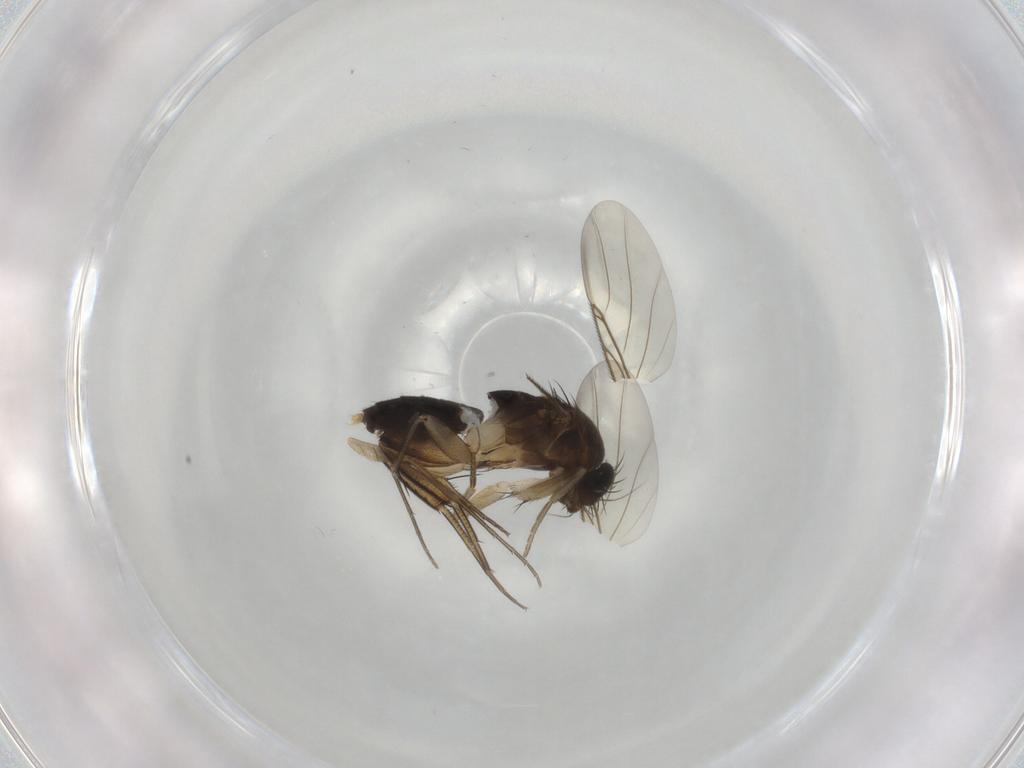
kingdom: Animalia
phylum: Arthropoda
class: Insecta
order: Diptera
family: Phoridae
